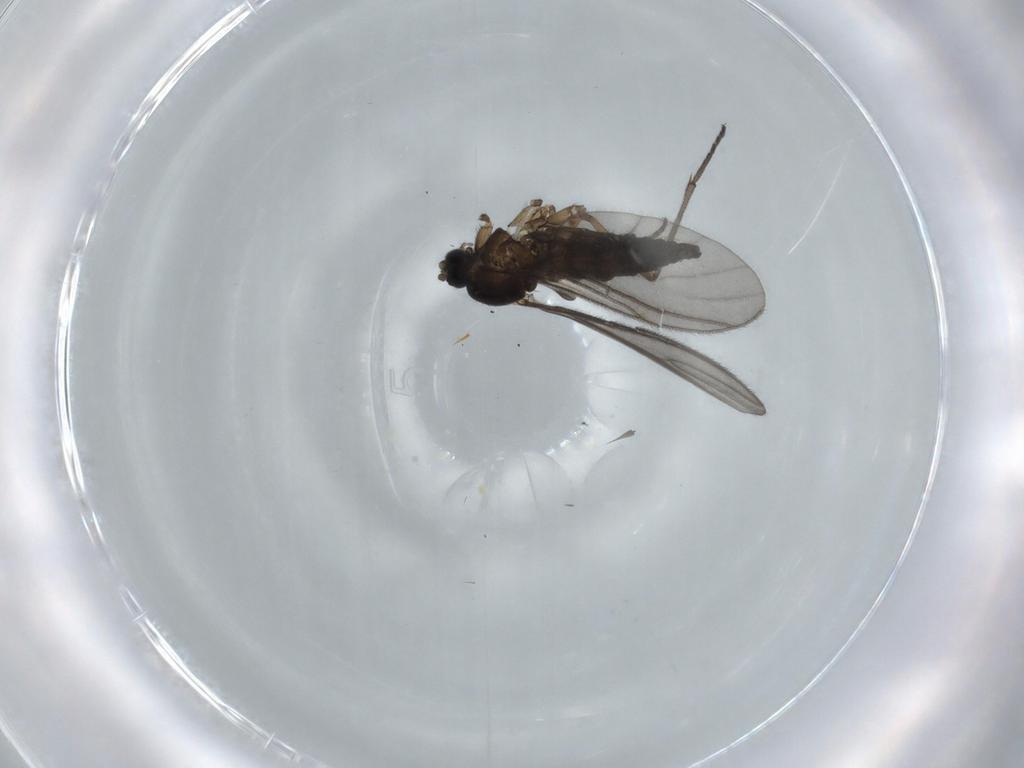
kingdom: Animalia
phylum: Arthropoda
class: Insecta
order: Diptera
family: Sciaridae
